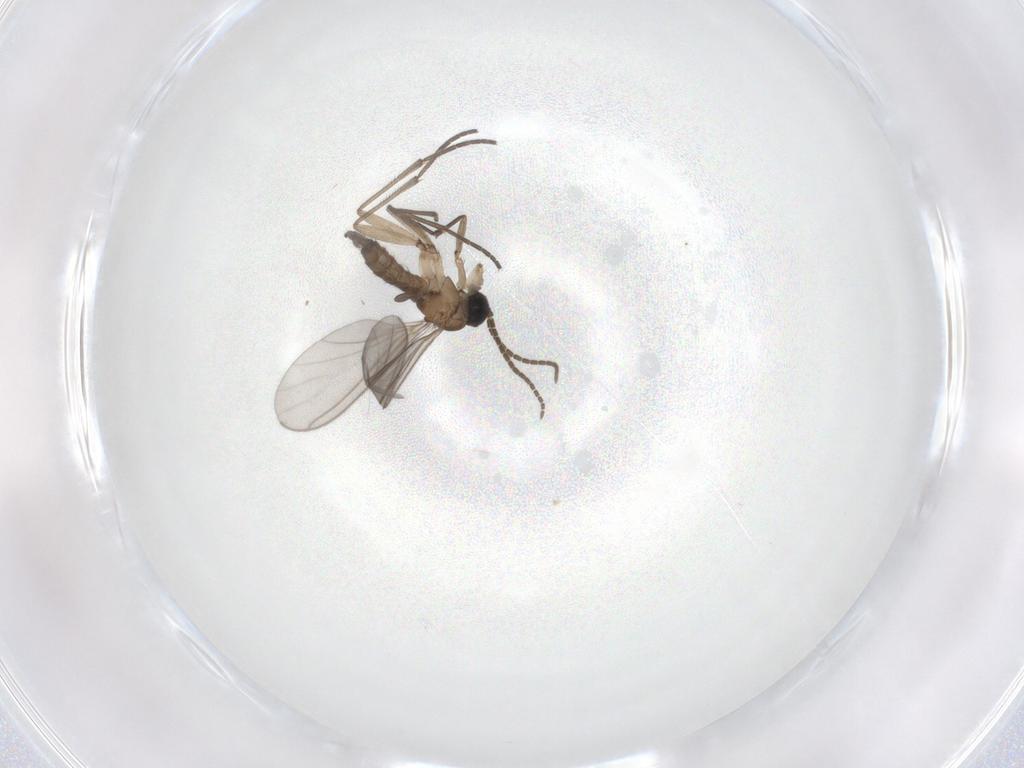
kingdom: Animalia
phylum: Arthropoda
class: Insecta
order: Diptera
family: Sciaridae
